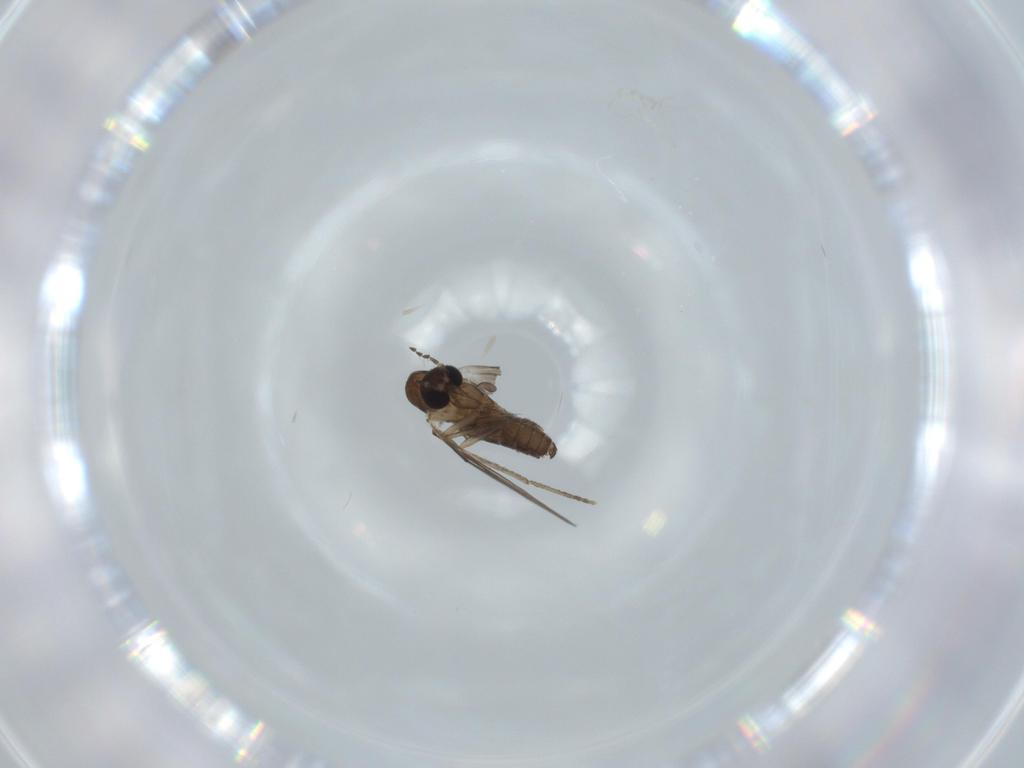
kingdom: Animalia
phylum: Arthropoda
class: Insecta
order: Diptera
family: Psychodidae
